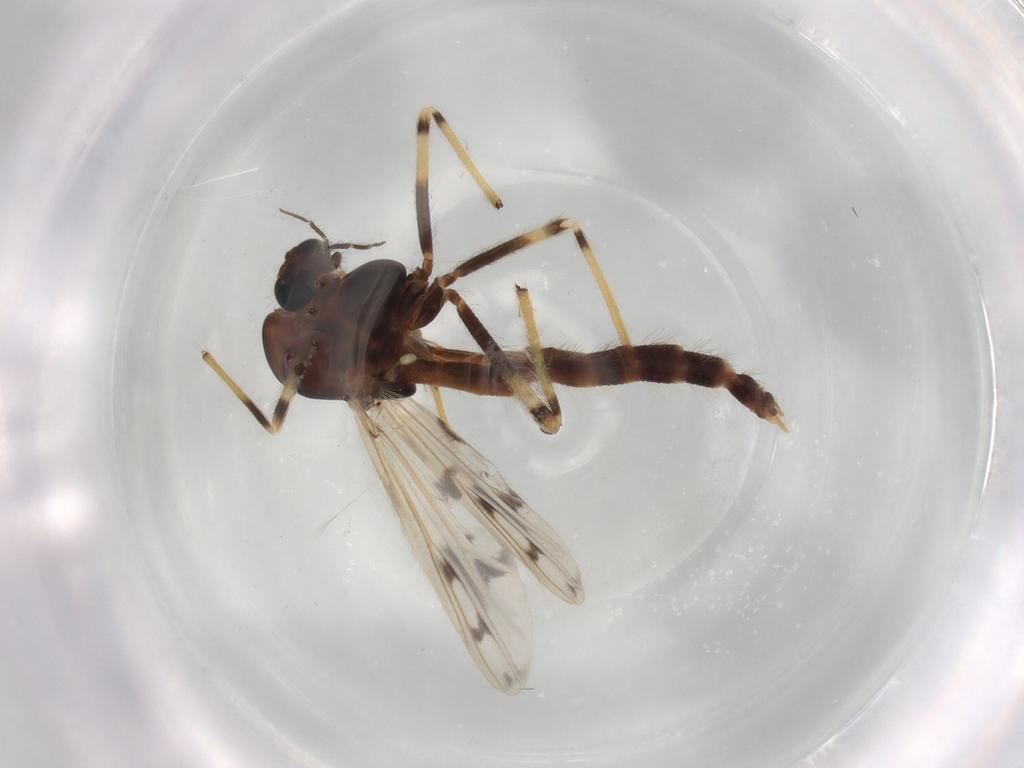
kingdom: Animalia
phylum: Arthropoda
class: Insecta
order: Diptera
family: Chironomidae
